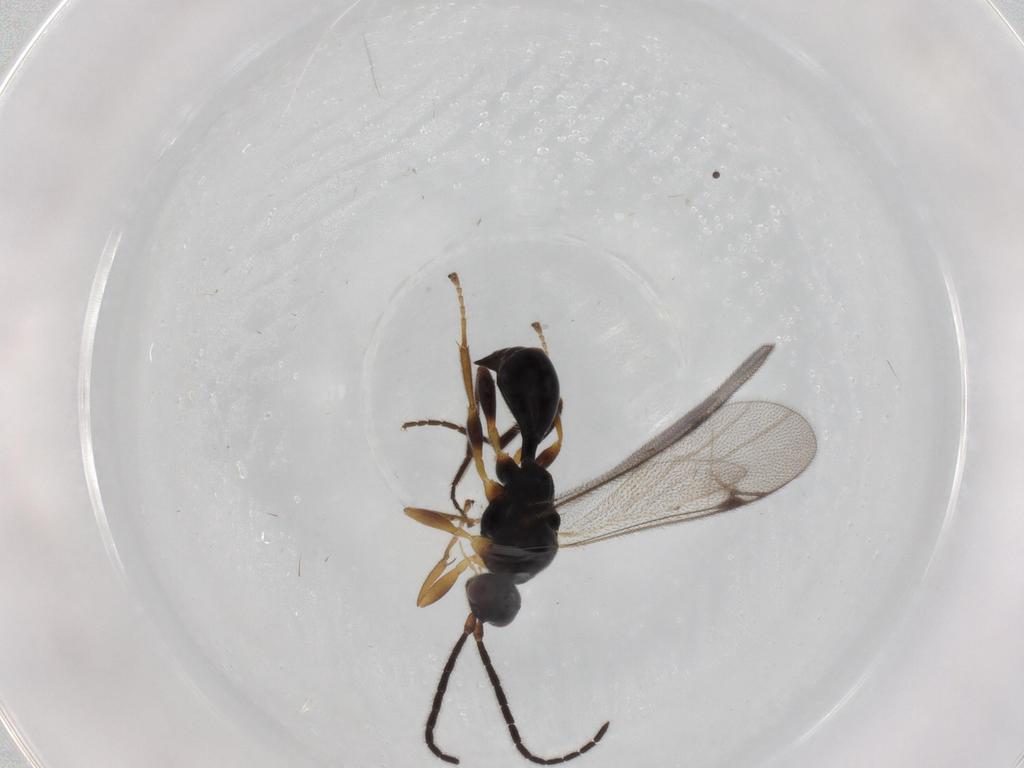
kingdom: Animalia
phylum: Arthropoda
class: Insecta
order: Hymenoptera
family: Proctotrupidae
